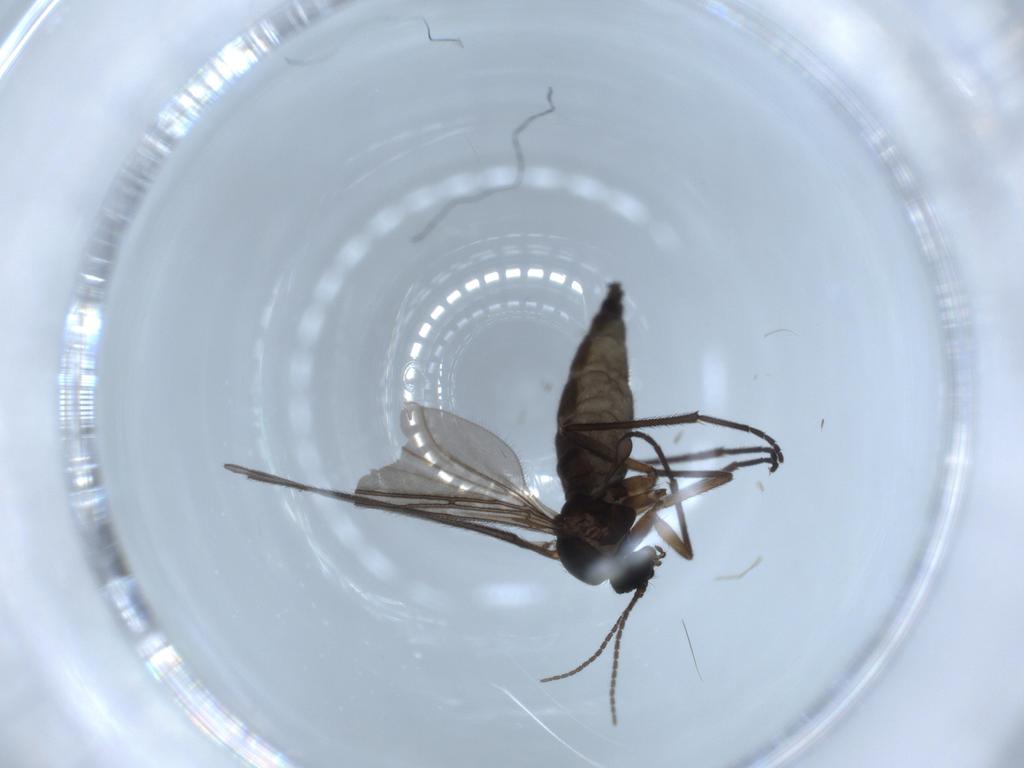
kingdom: Animalia
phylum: Arthropoda
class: Insecta
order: Diptera
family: Sciaridae
